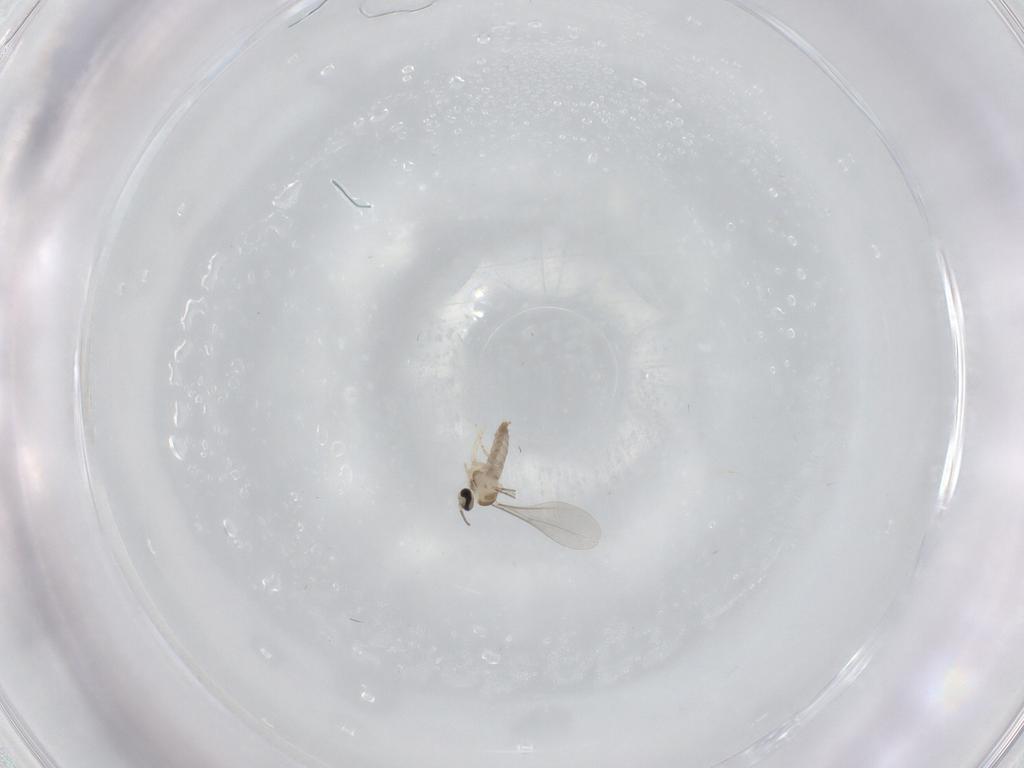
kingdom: Animalia
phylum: Arthropoda
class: Insecta
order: Diptera
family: Cecidomyiidae
